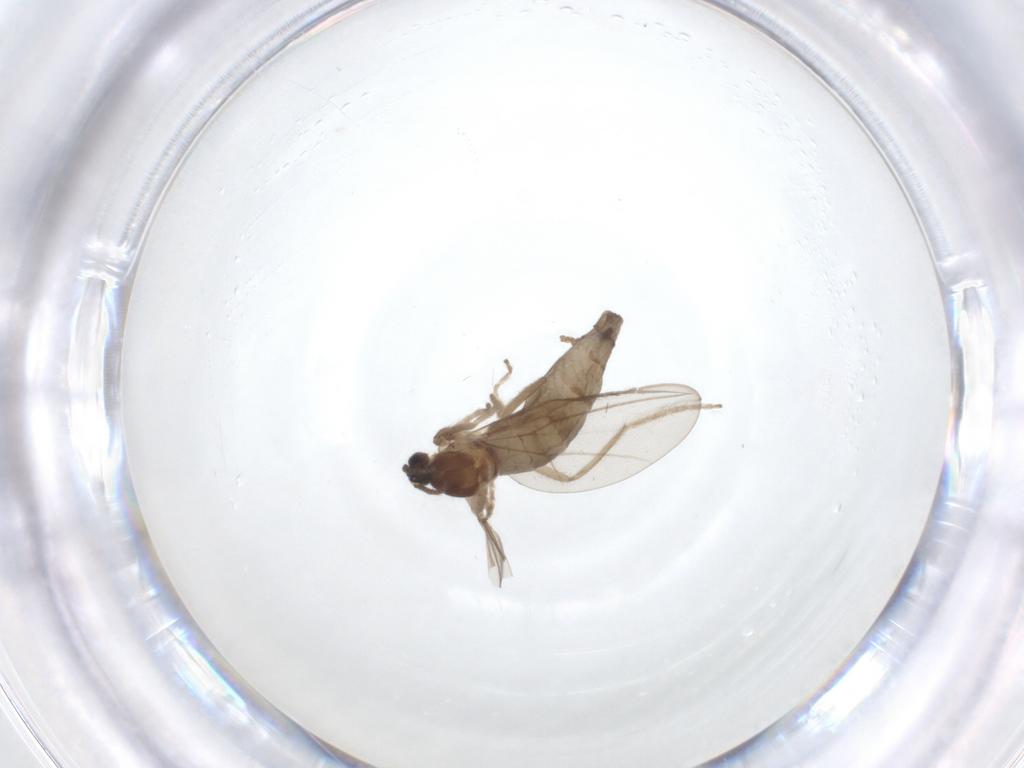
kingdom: Animalia
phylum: Arthropoda
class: Insecta
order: Diptera
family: Cecidomyiidae
